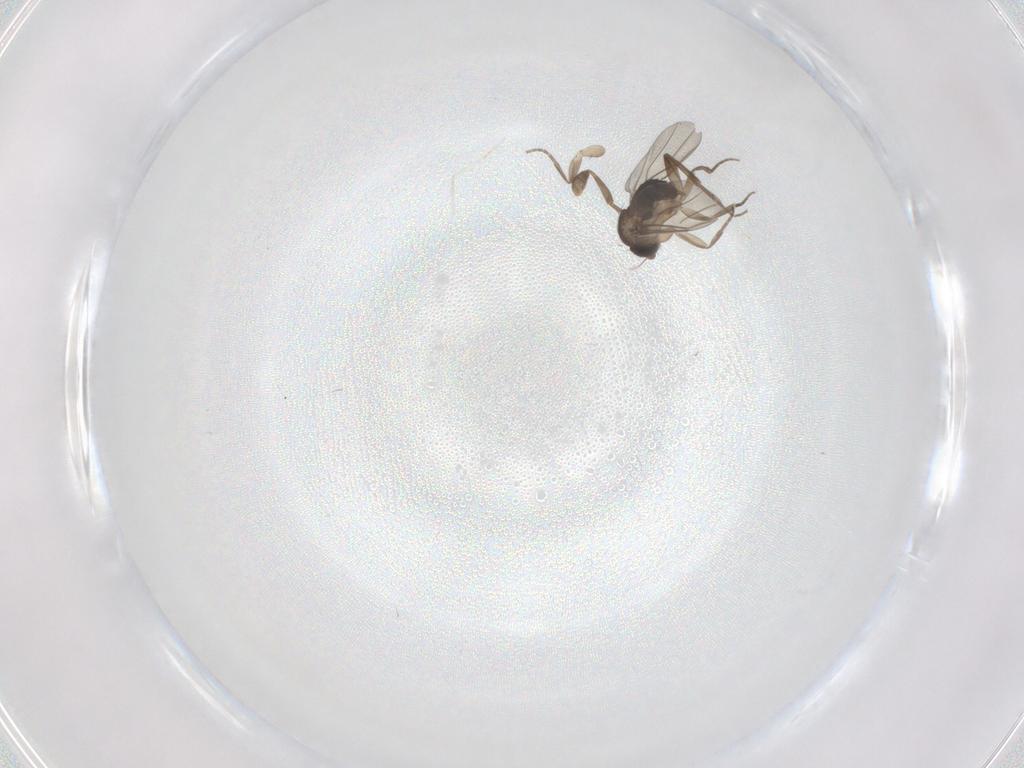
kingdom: Animalia
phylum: Arthropoda
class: Insecta
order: Diptera
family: Phoridae
